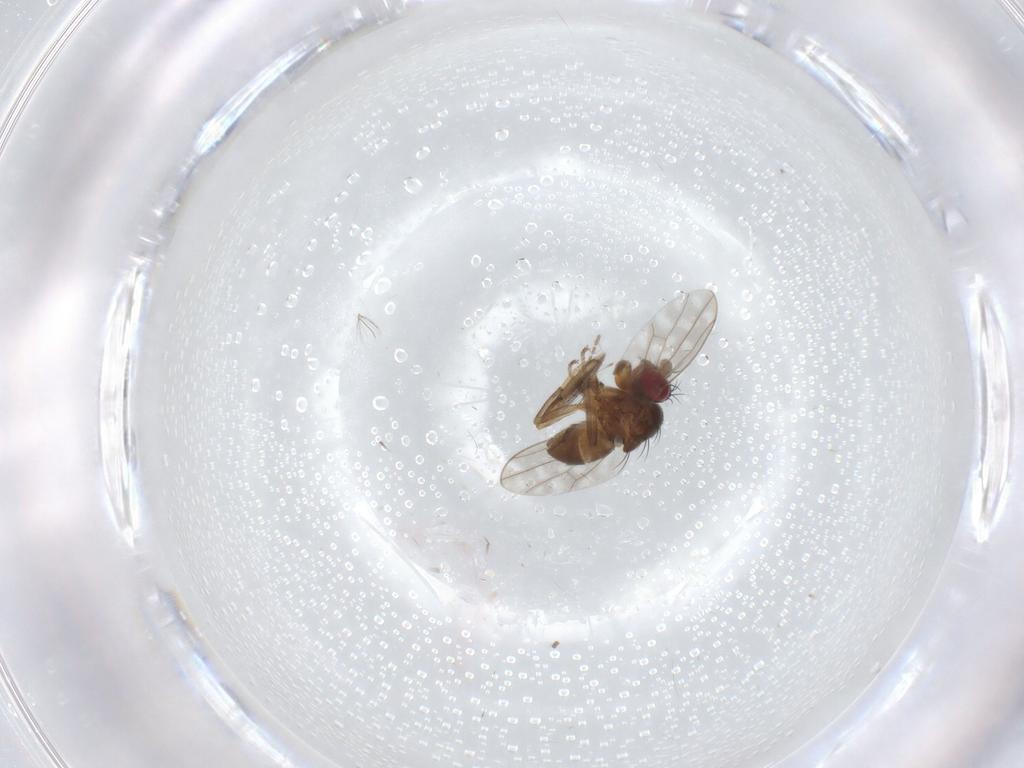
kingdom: Animalia
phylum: Arthropoda
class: Insecta
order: Diptera
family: Ephydridae
